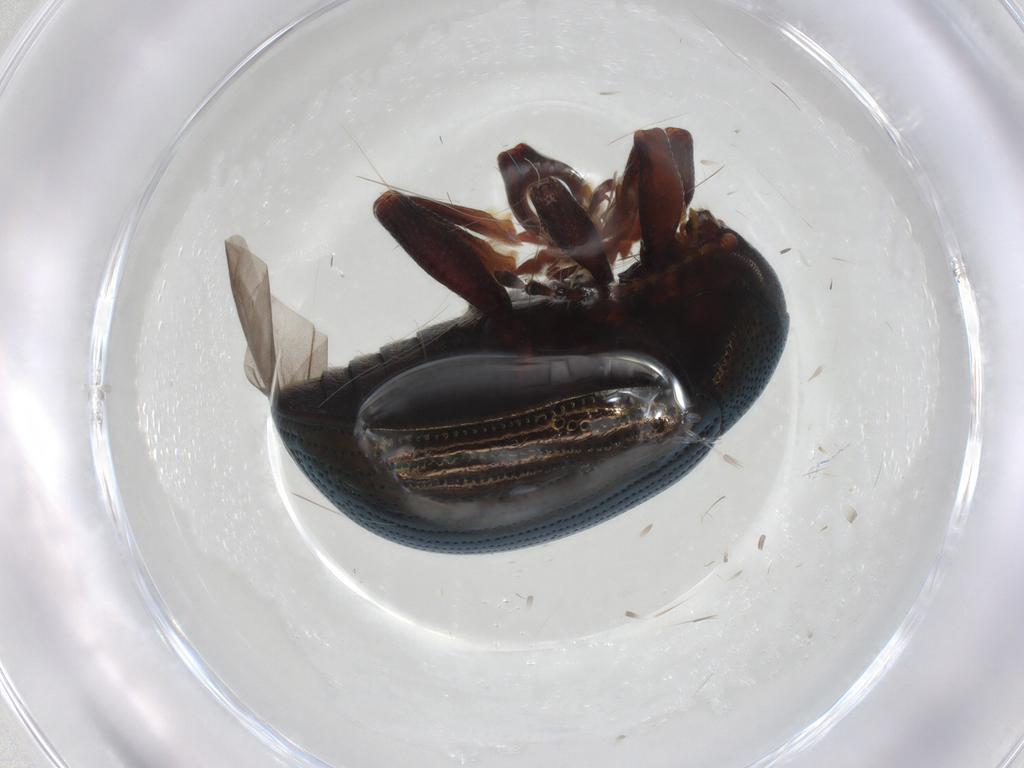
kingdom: Animalia
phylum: Arthropoda
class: Insecta
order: Coleoptera
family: Chrysomelidae
